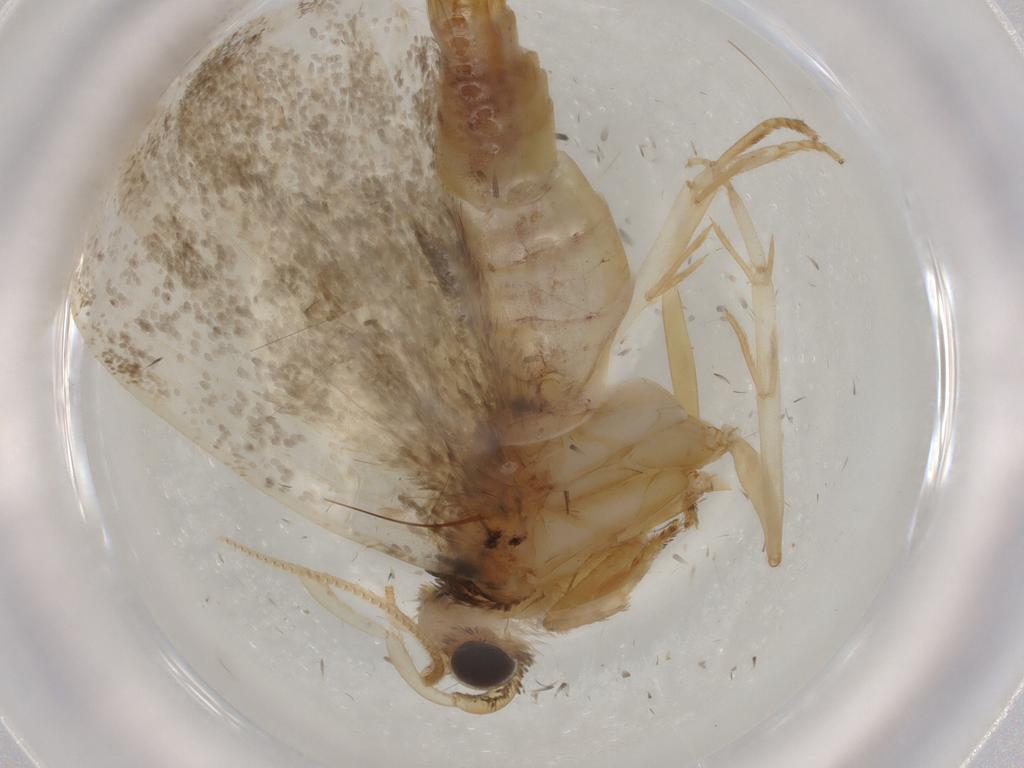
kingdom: Animalia
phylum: Arthropoda
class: Insecta
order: Lepidoptera
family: Tineidae
